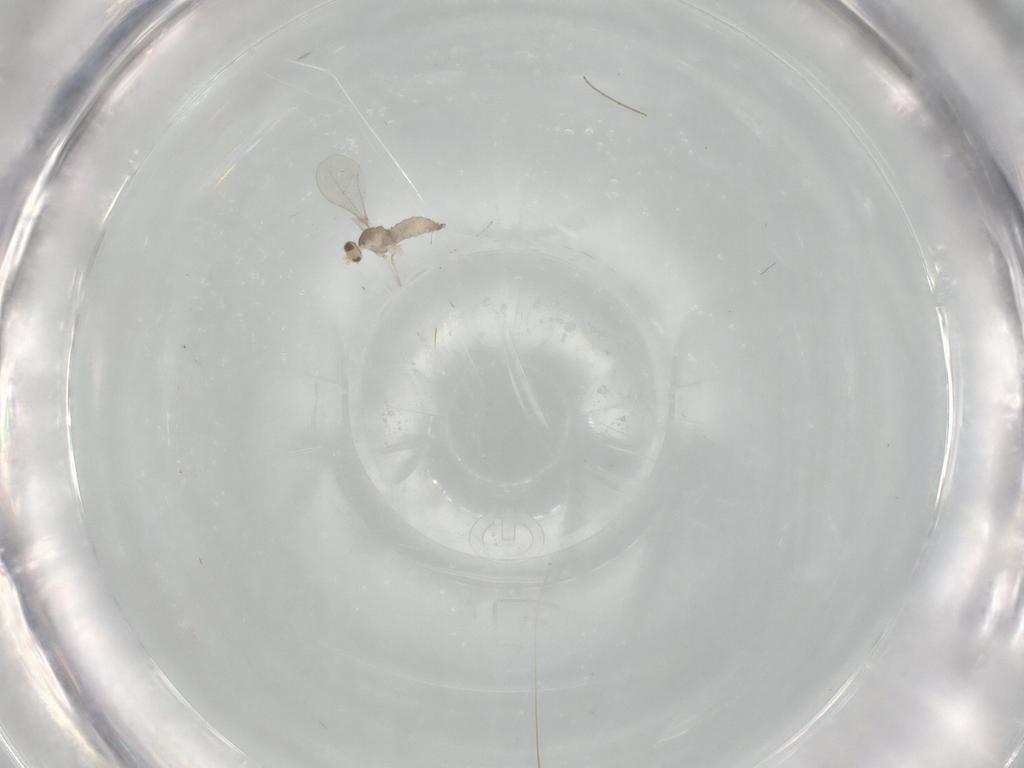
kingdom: Animalia
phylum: Arthropoda
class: Insecta
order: Diptera
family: Cecidomyiidae
